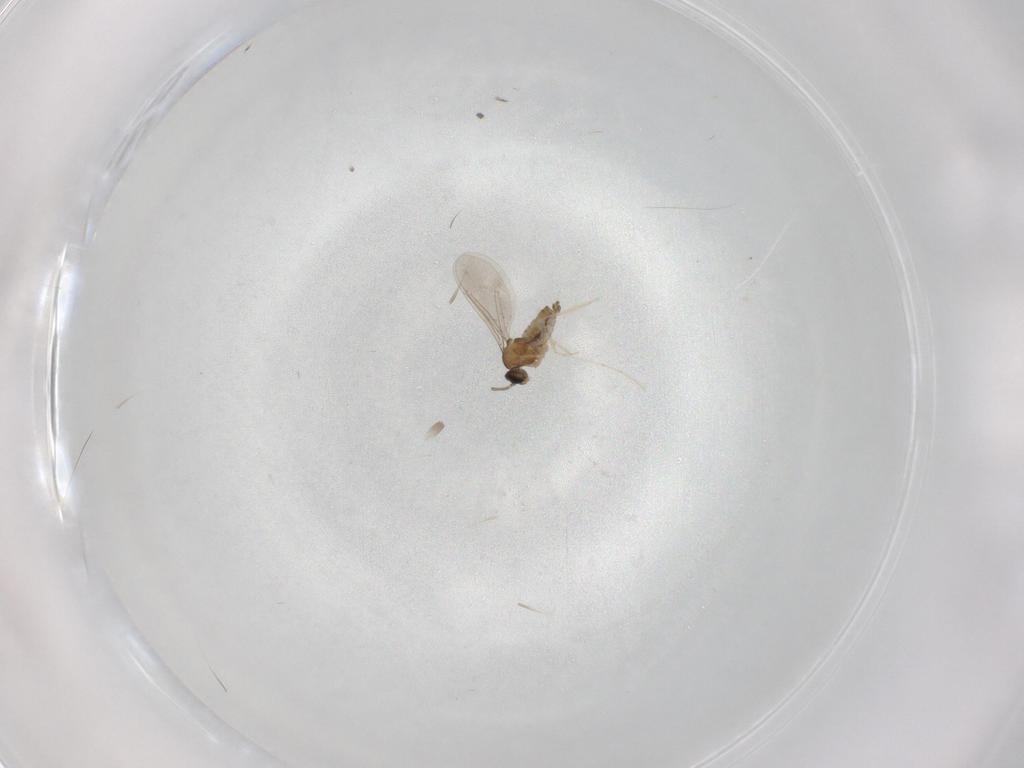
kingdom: Animalia
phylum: Arthropoda
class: Insecta
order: Diptera
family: Cecidomyiidae
